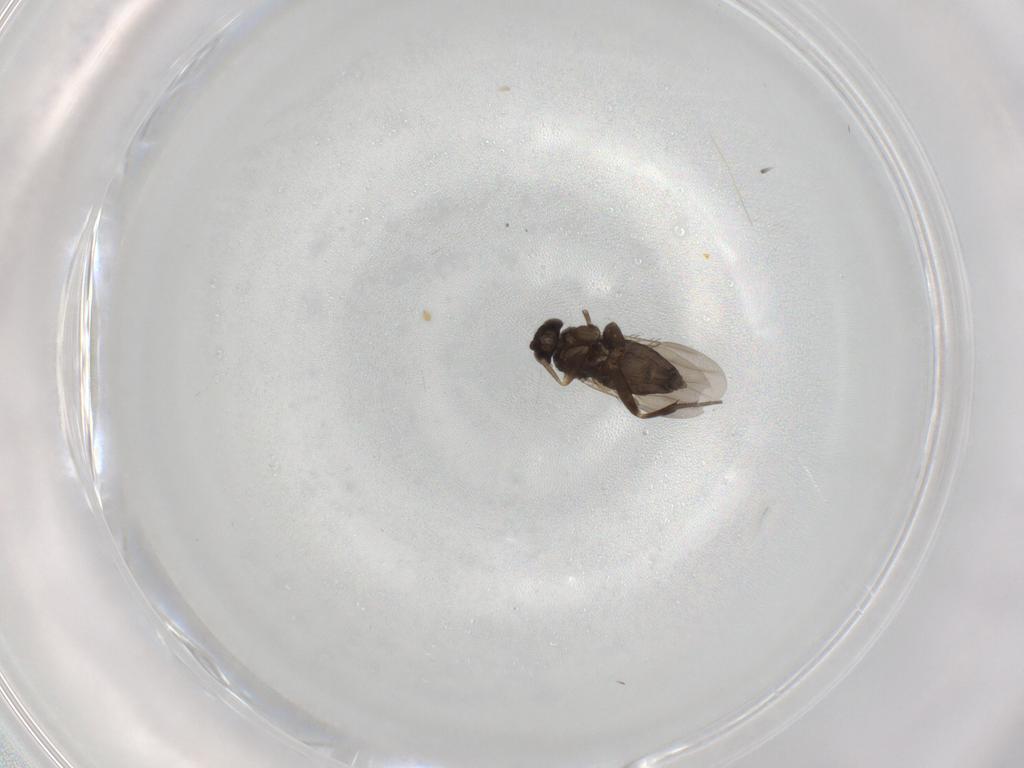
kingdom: Animalia
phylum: Arthropoda
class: Insecta
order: Diptera
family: Phoridae
